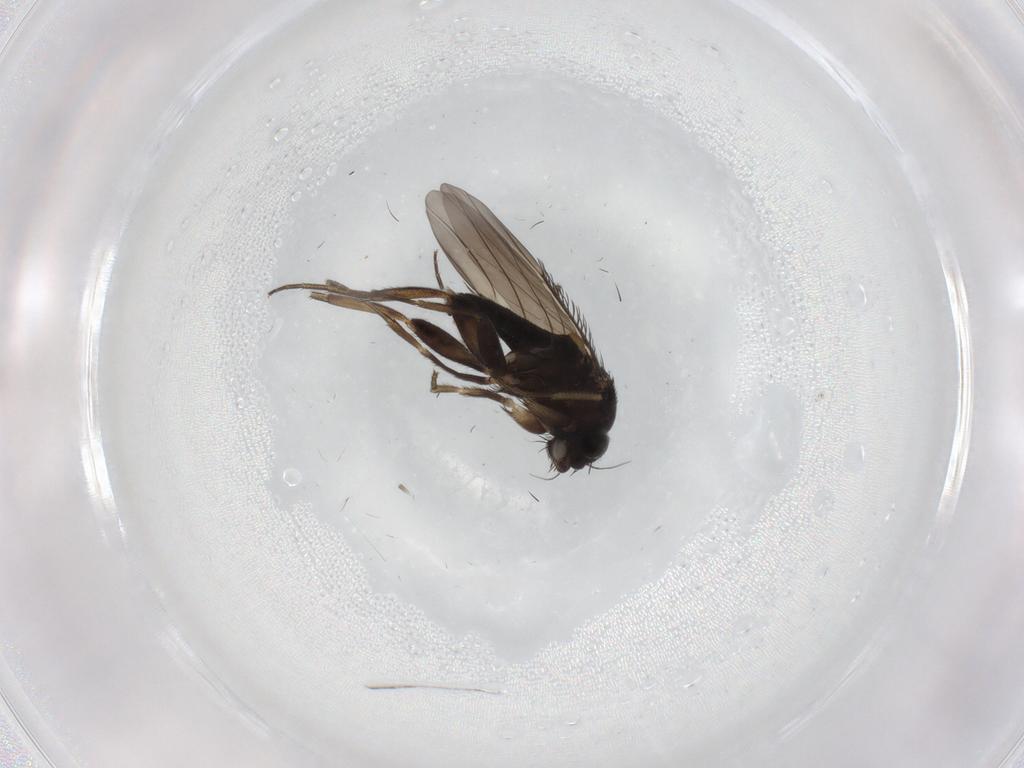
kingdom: Animalia
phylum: Arthropoda
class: Insecta
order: Diptera
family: Phoridae
